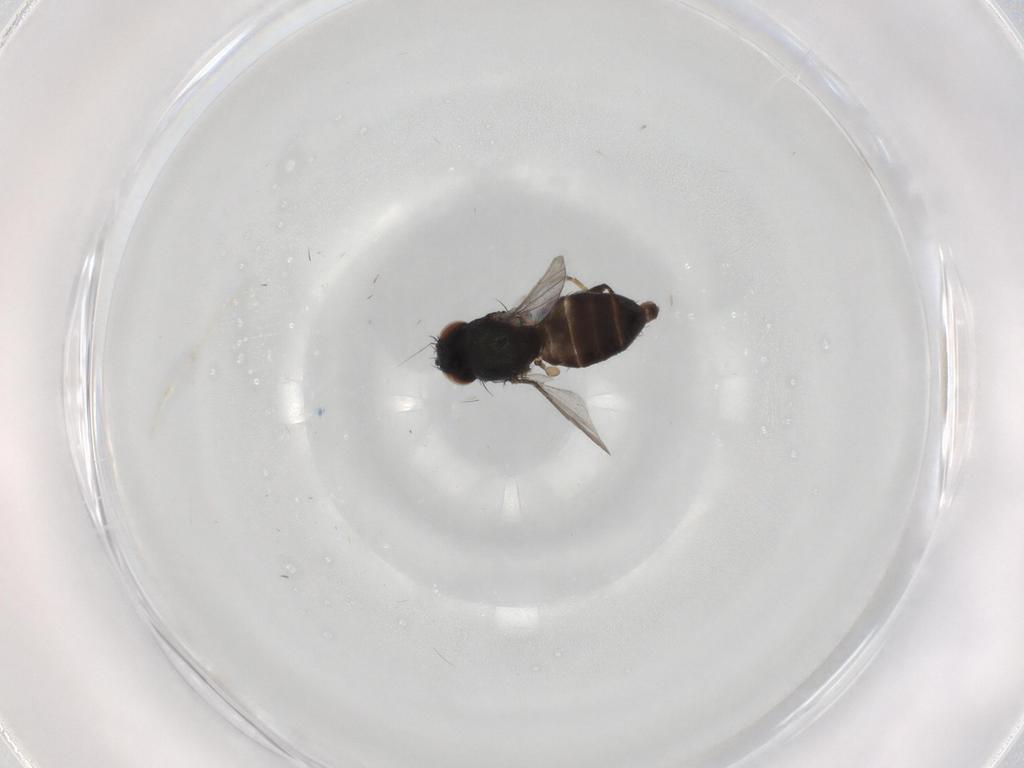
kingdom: Animalia
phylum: Arthropoda
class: Insecta
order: Diptera
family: Milichiidae
